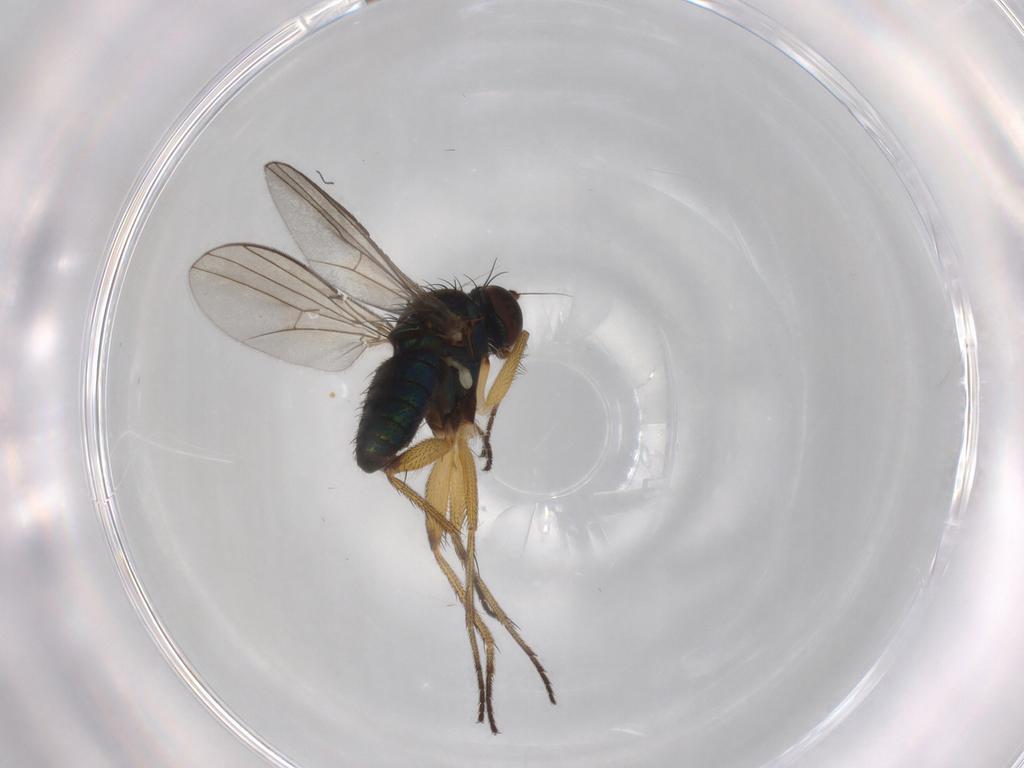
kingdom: Animalia
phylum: Arthropoda
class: Insecta
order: Diptera
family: Dolichopodidae
